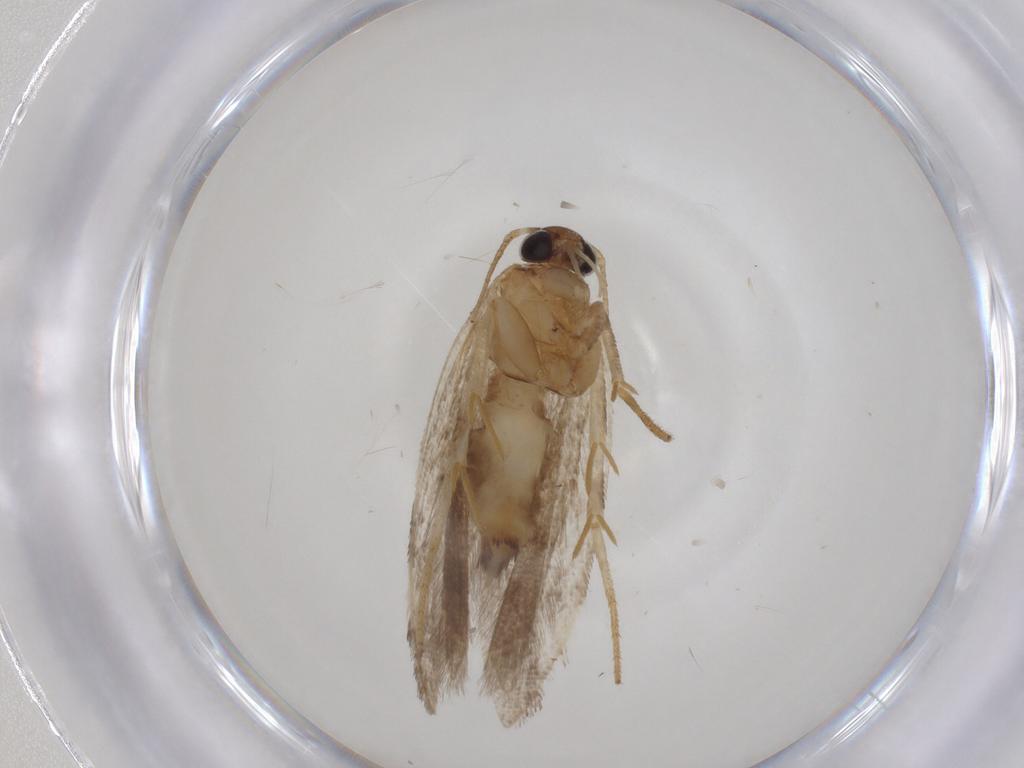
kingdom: Animalia
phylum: Arthropoda
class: Insecta
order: Lepidoptera
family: Gelechiidae
